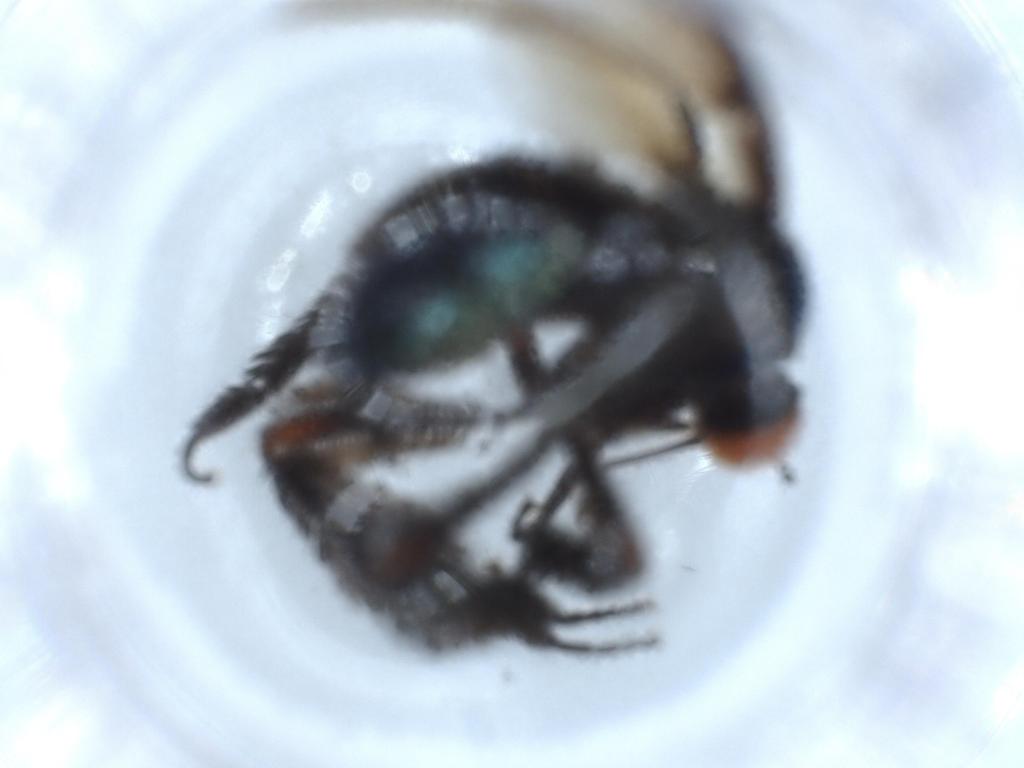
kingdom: Animalia
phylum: Arthropoda
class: Insecta
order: Diptera
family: Empididae
